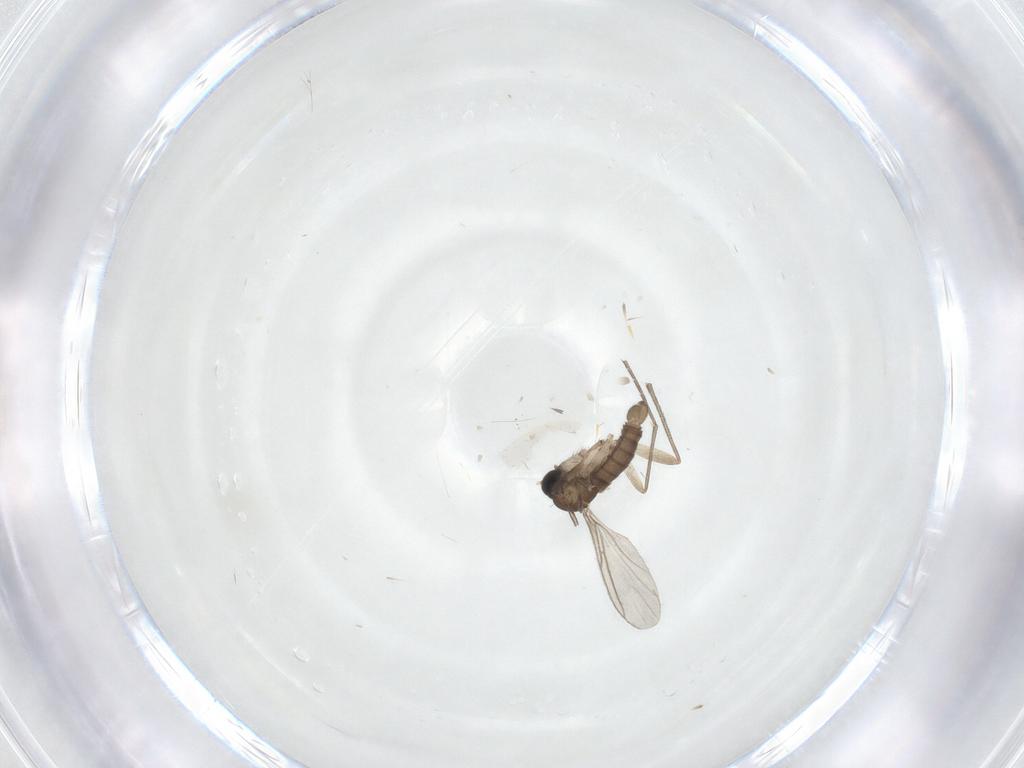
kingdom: Animalia
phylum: Arthropoda
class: Insecta
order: Diptera
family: Sciaridae
